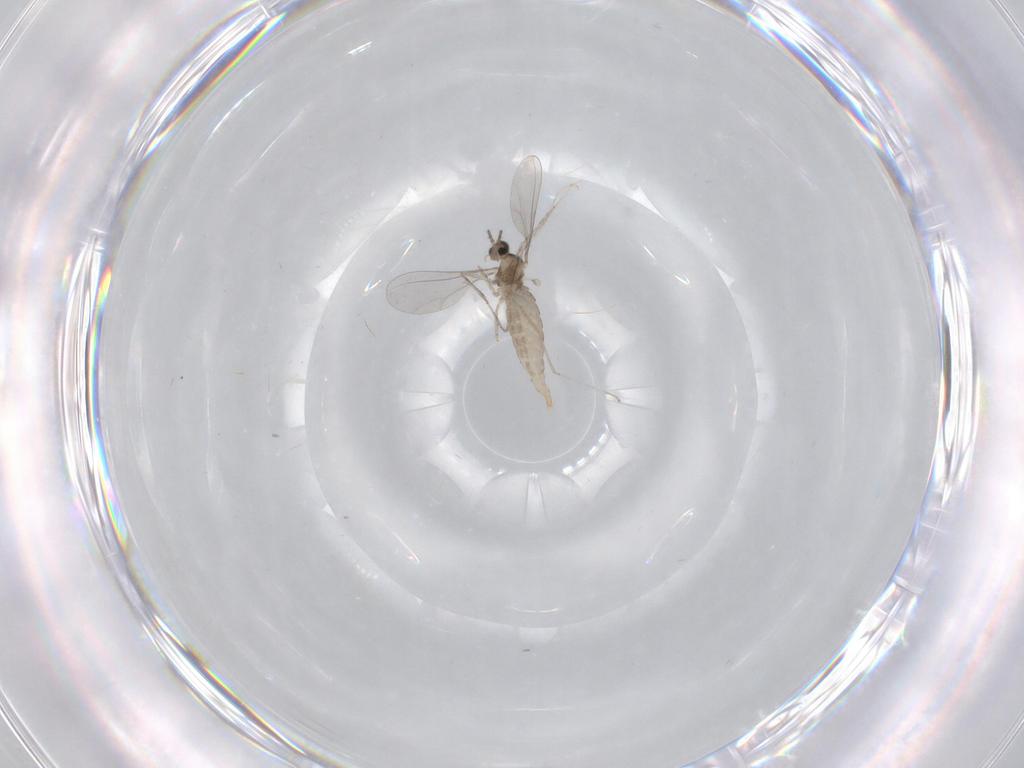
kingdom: Animalia
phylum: Arthropoda
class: Insecta
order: Diptera
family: Ceratopogonidae
